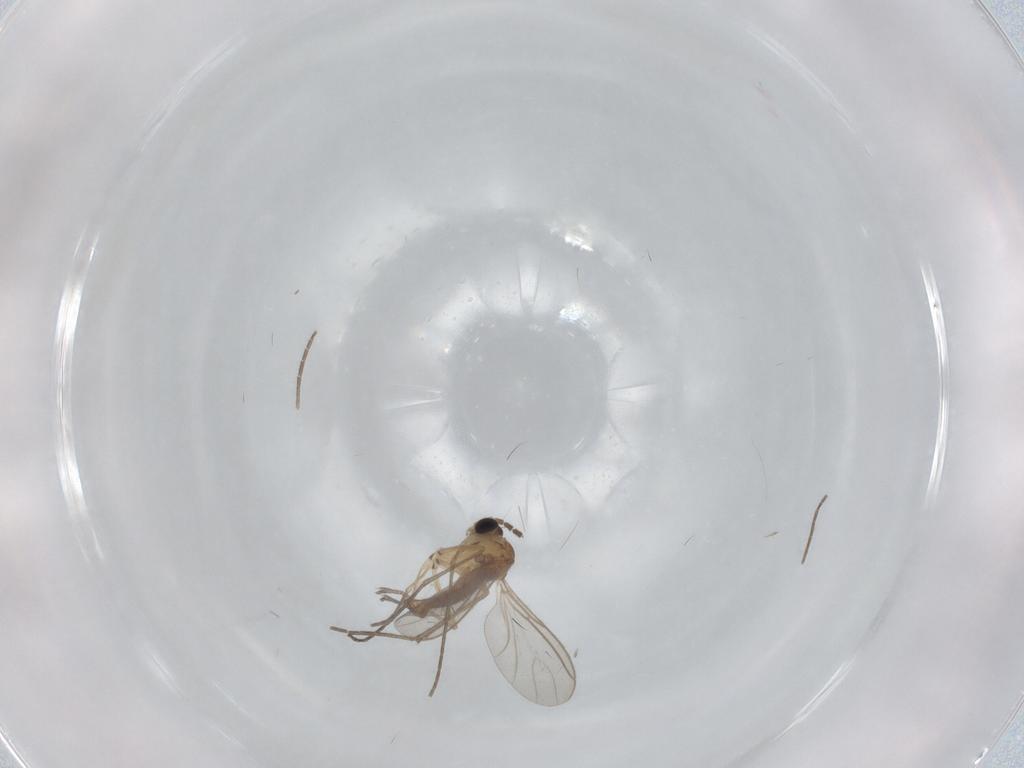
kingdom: Animalia
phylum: Arthropoda
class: Insecta
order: Diptera
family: Sciaridae
